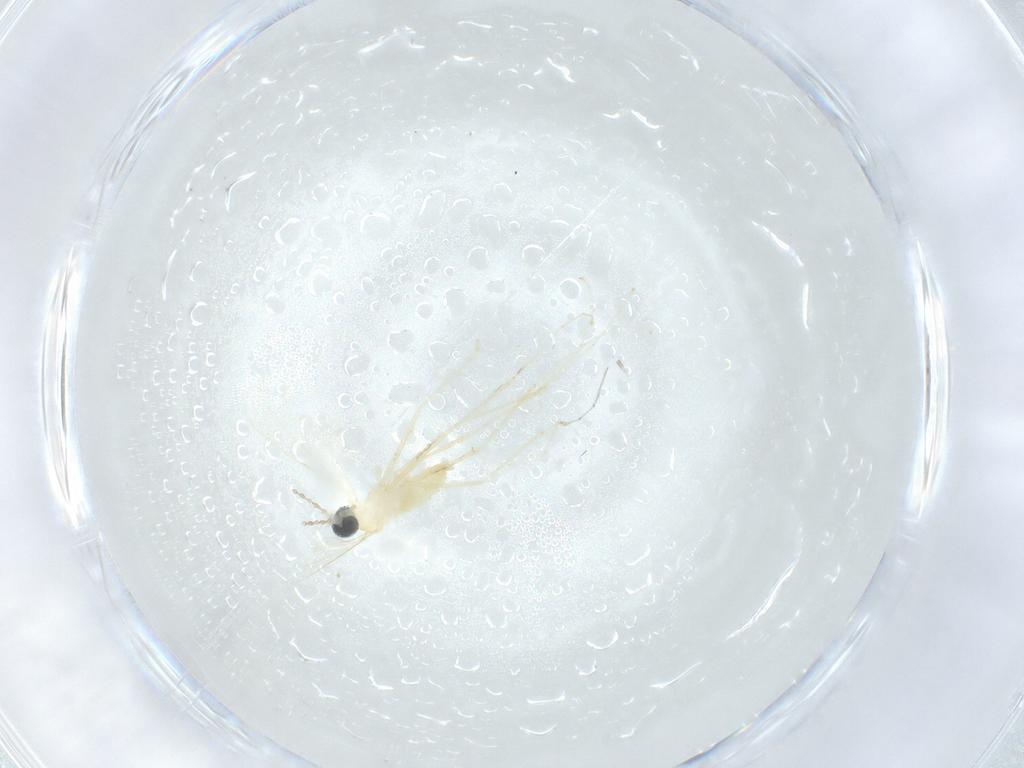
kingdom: Animalia
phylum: Arthropoda
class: Insecta
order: Diptera
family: Cecidomyiidae
